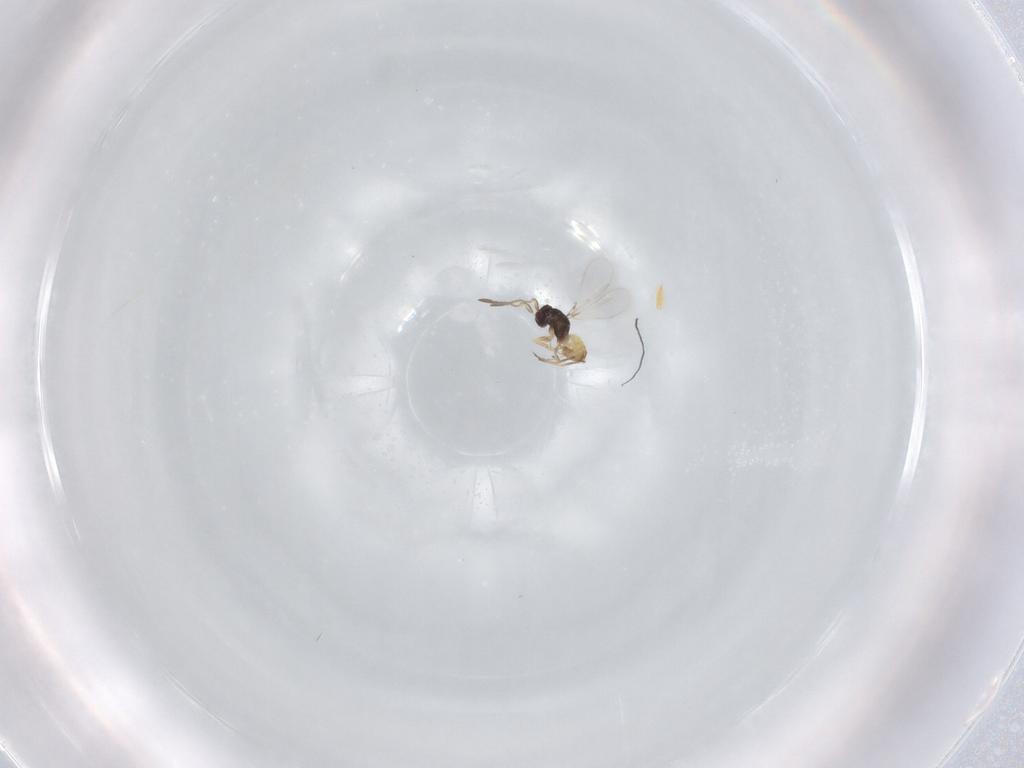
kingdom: Animalia
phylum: Arthropoda
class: Insecta
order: Hymenoptera
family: Mymaridae
